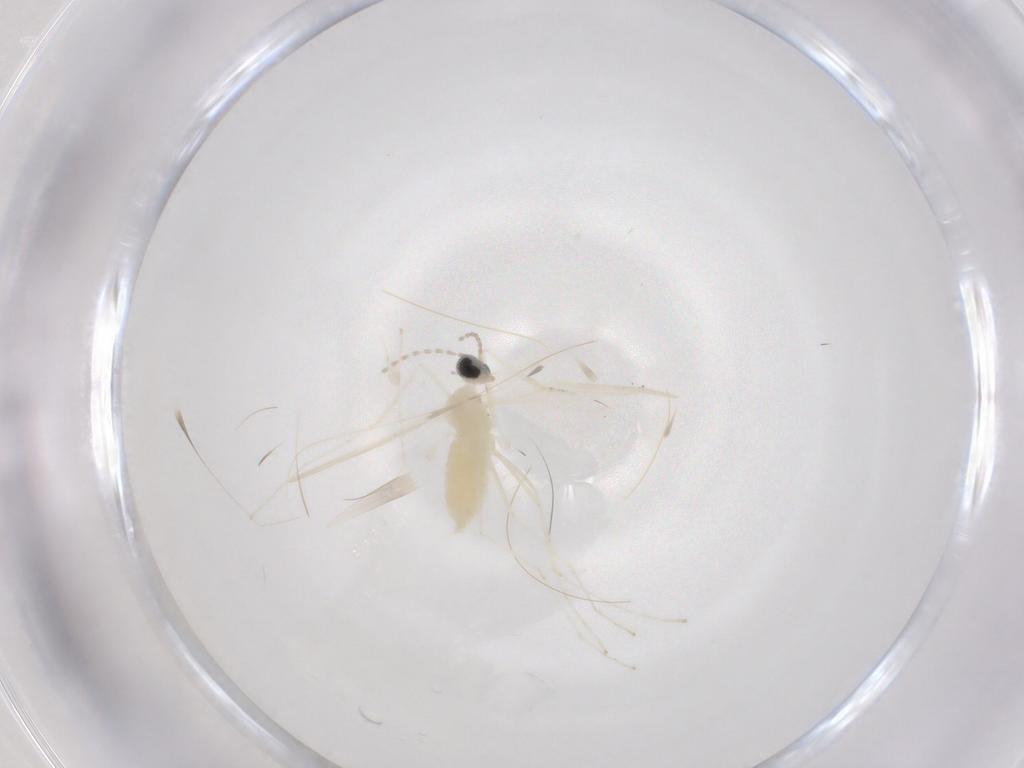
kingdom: Animalia
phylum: Arthropoda
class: Insecta
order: Diptera
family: Cecidomyiidae
